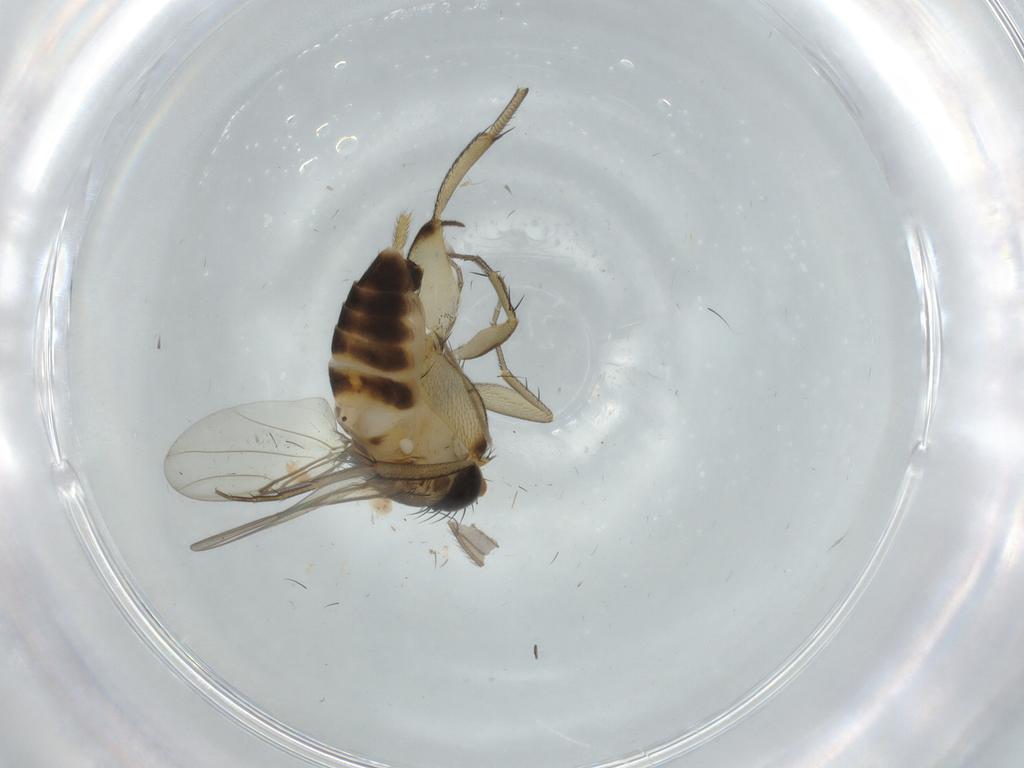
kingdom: Animalia
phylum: Arthropoda
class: Insecta
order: Diptera
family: Phoridae
